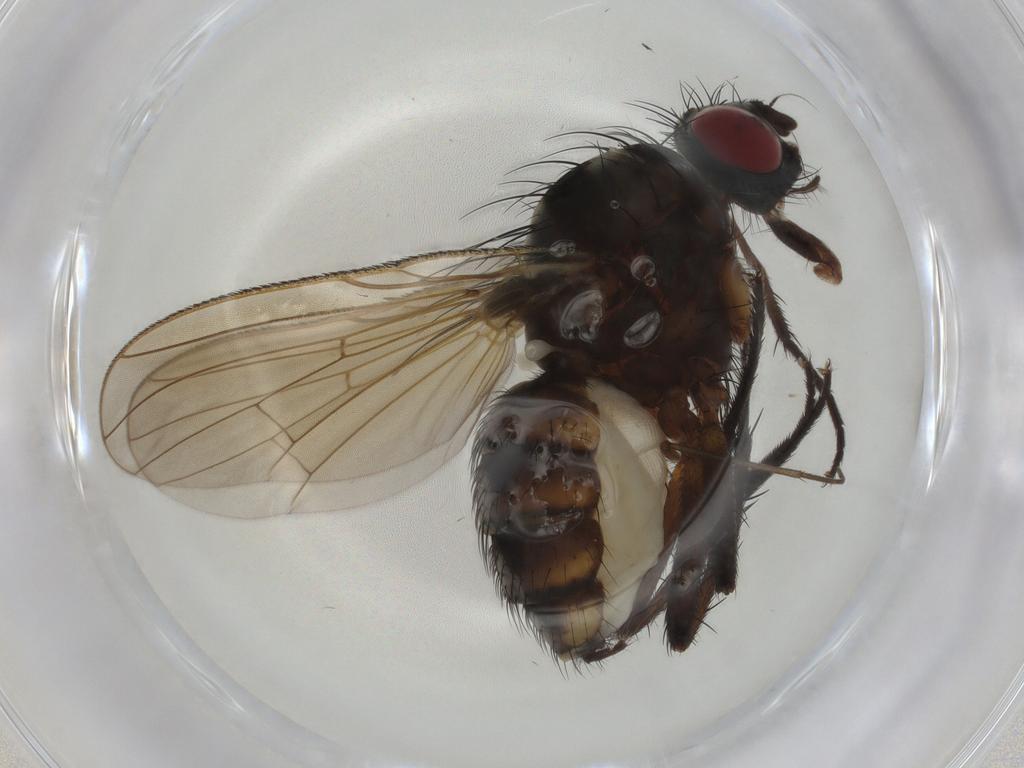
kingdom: Animalia
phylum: Arthropoda
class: Insecta
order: Diptera
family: Anthomyiidae
